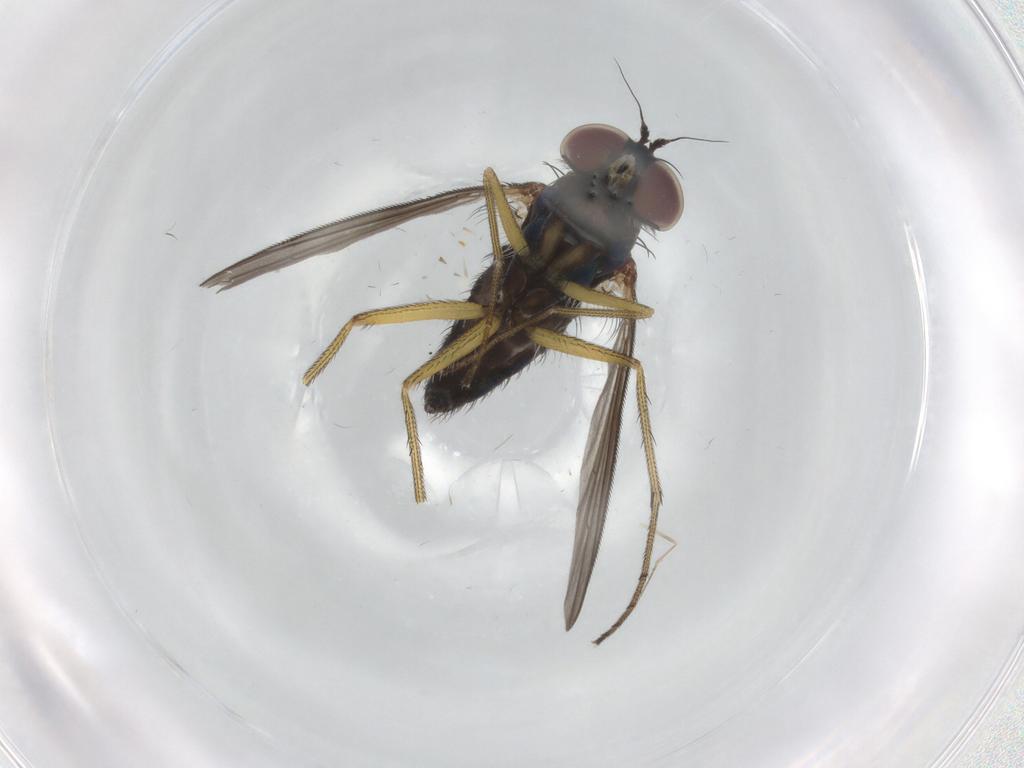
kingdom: Animalia
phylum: Arthropoda
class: Insecta
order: Diptera
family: Dolichopodidae
